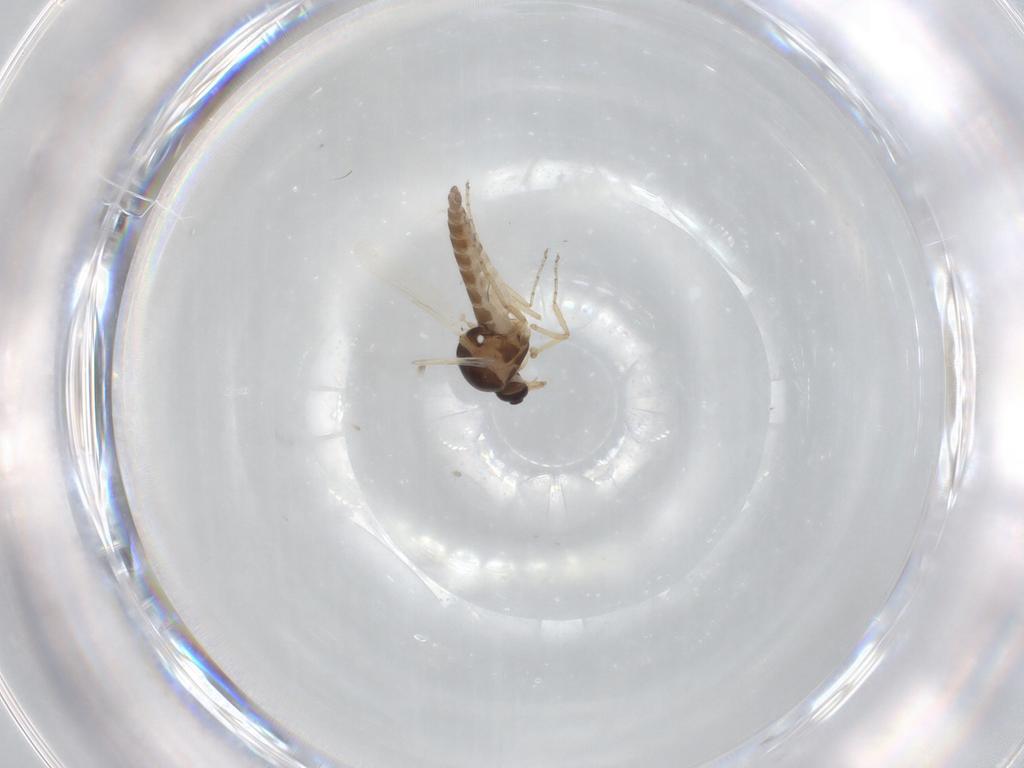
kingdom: Animalia
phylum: Arthropoda
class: Insecta
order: Diptera
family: Ceratopogonidae
